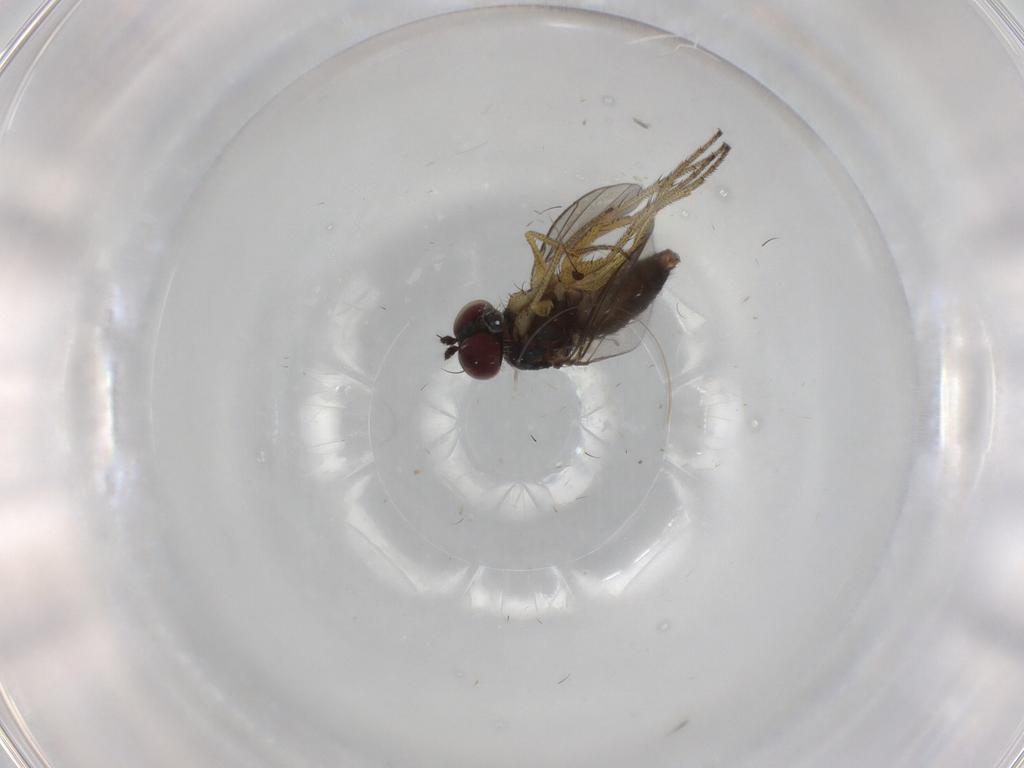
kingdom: Animalia
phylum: Arthropoda
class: Insecta
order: Diptera
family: Dolichopodidae
